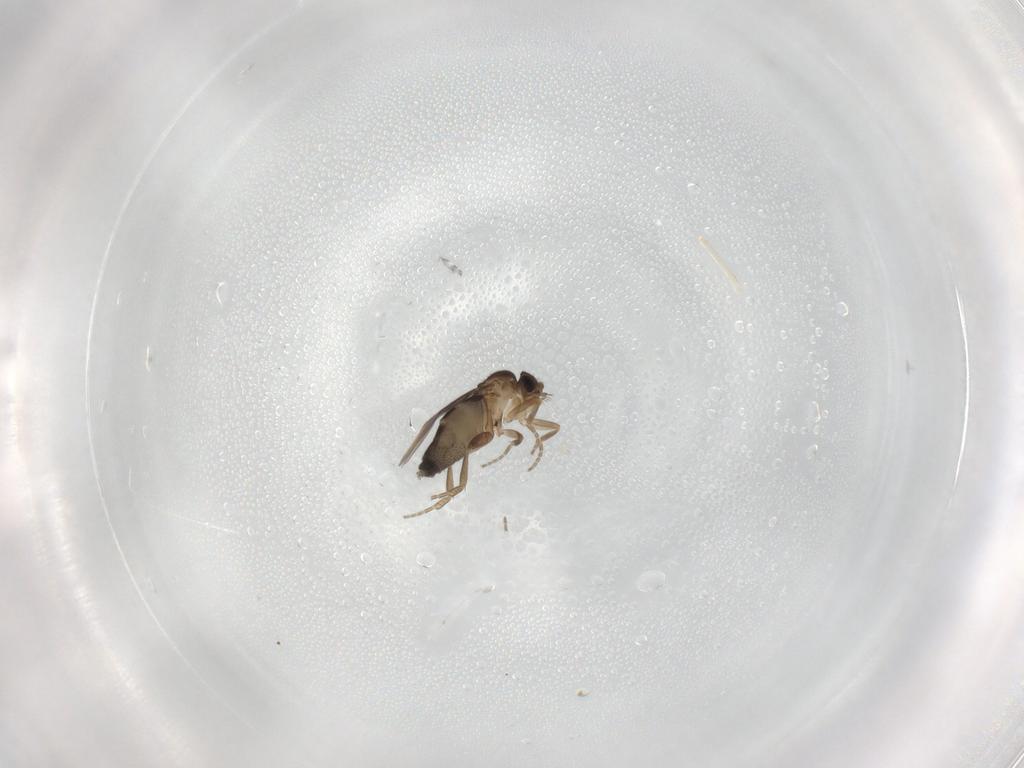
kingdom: Animalia
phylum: Arthropoda
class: Insecta
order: Diptera
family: Phoridae
